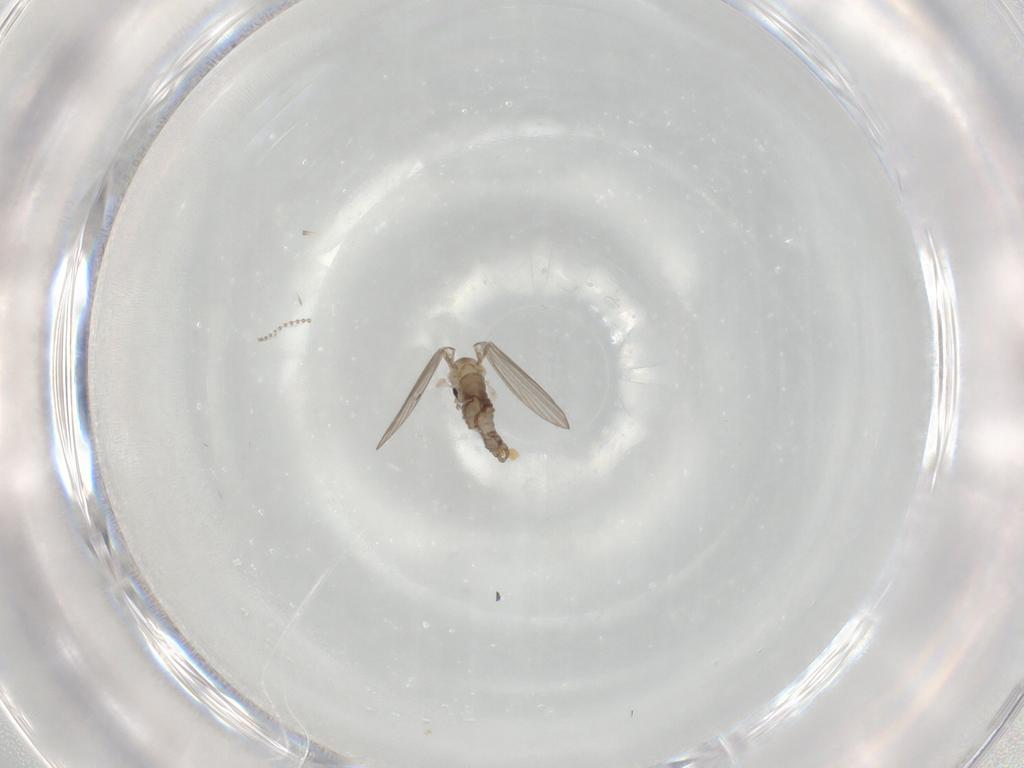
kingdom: Animalia
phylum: Arthropoda
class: Insecta
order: Diptera
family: Psychodidae
